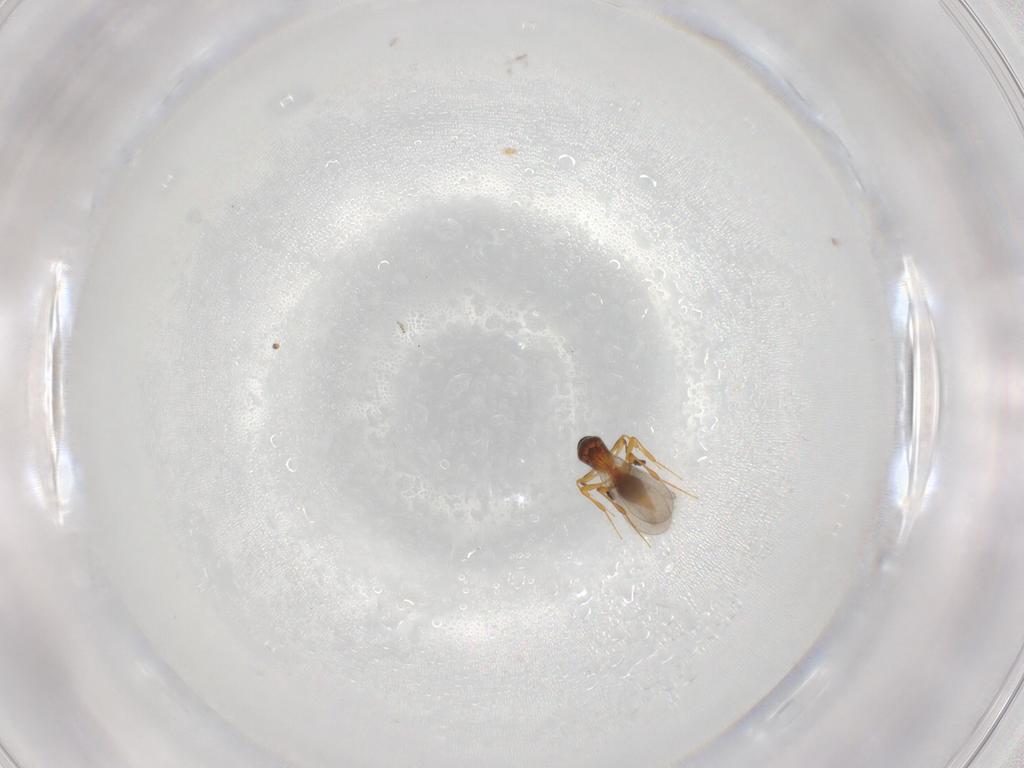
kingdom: Animalia
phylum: Arthropoda
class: Insecta
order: Hymenoptera
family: Platygastridae
